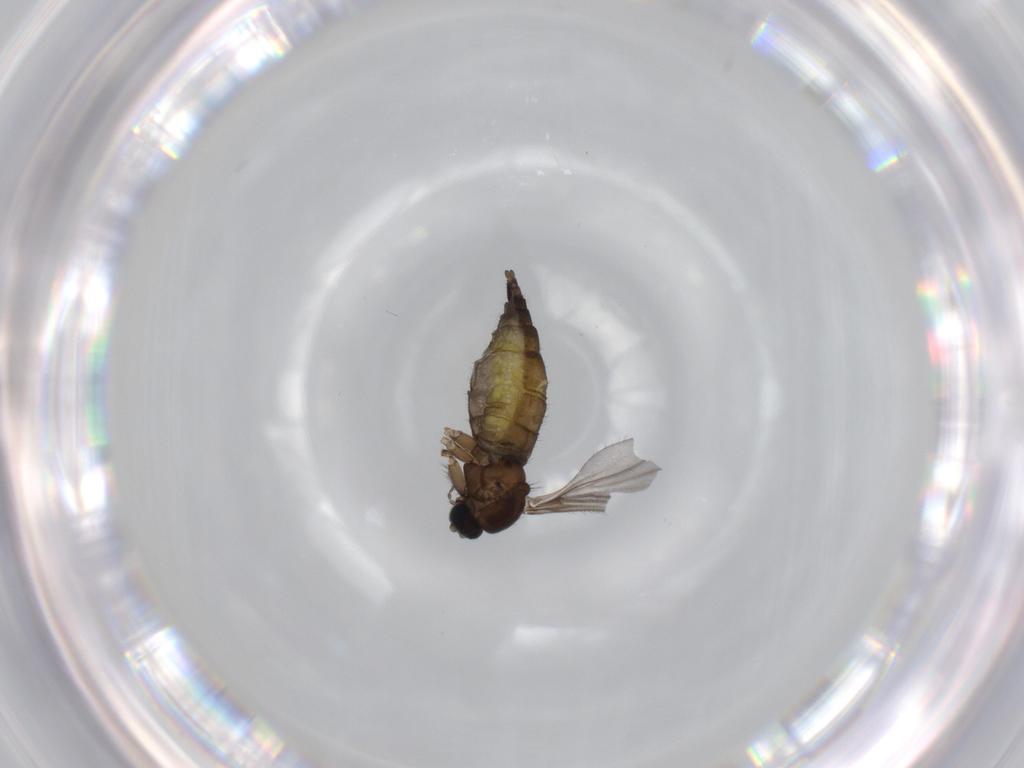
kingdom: Animalia
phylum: Arthropoda
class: Insecta
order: Diptera
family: Sciaridae
